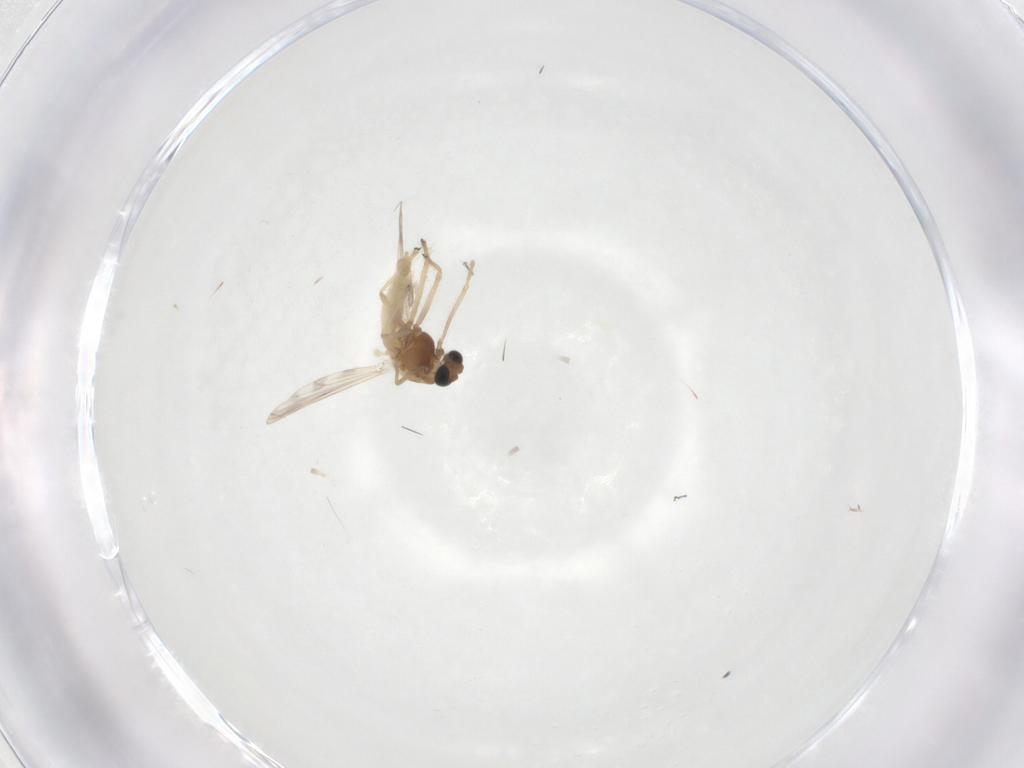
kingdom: Animalia
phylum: Arthropoda
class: Insecta
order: Diptera
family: Chironomidae
